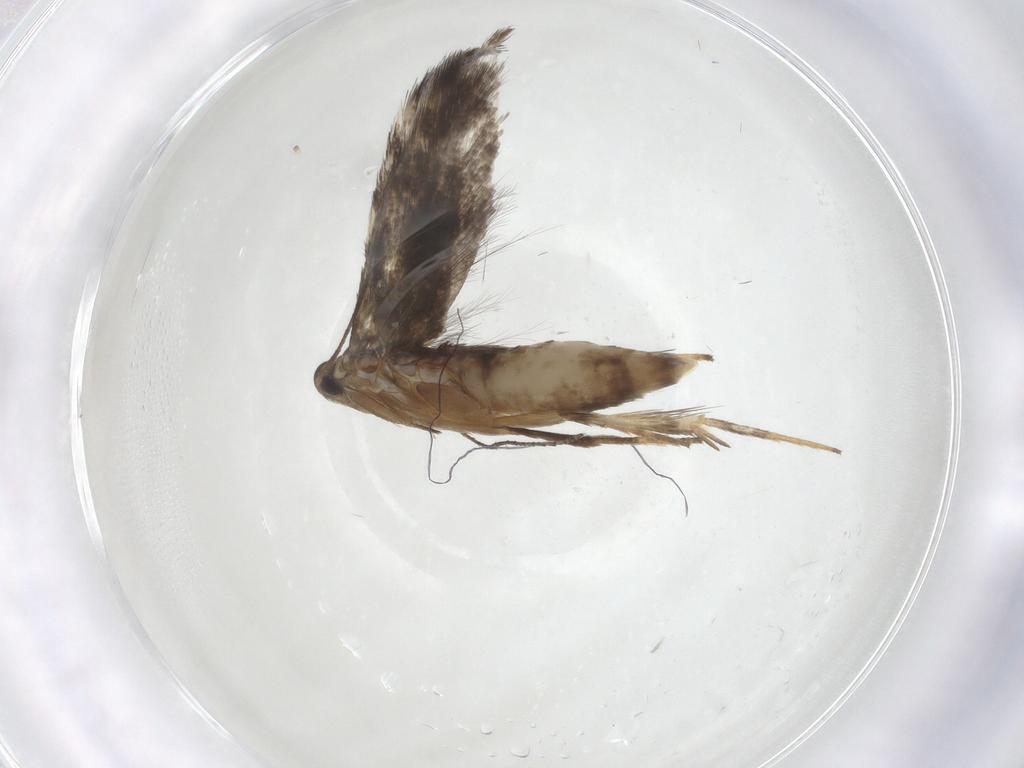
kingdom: Animalia
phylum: Arthropoda
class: Insecta
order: Lepidoptera
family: Gelechiidae
